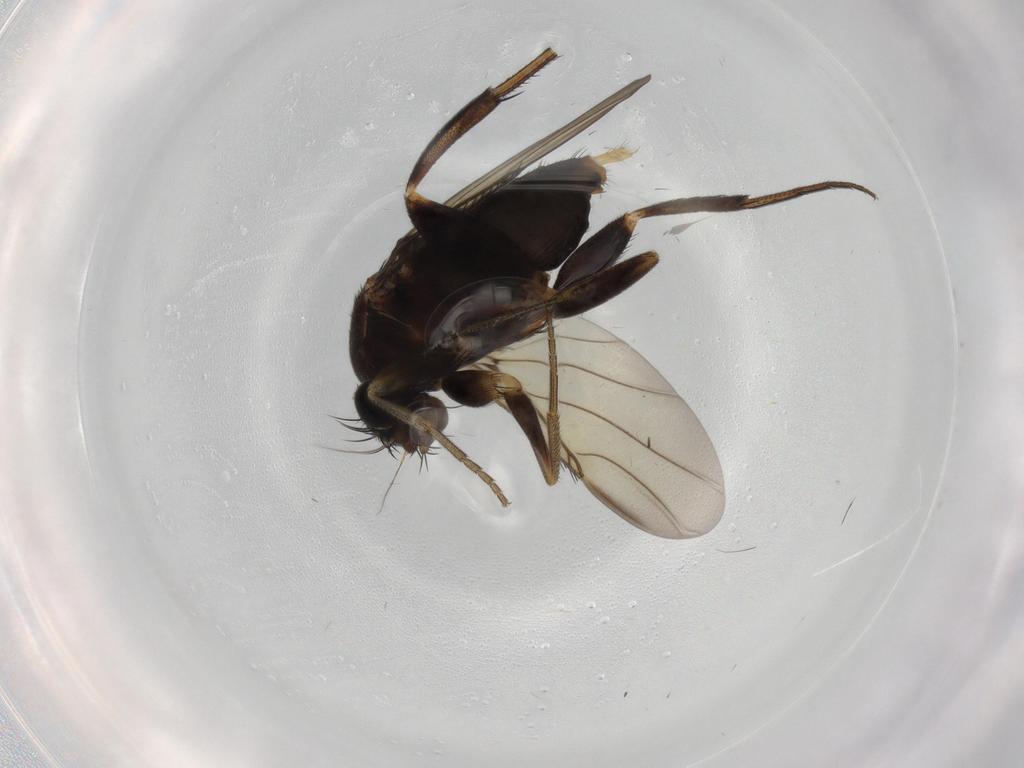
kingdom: Animalia
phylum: Arthropoda
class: Insecta
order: Diptera
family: Phoridae
